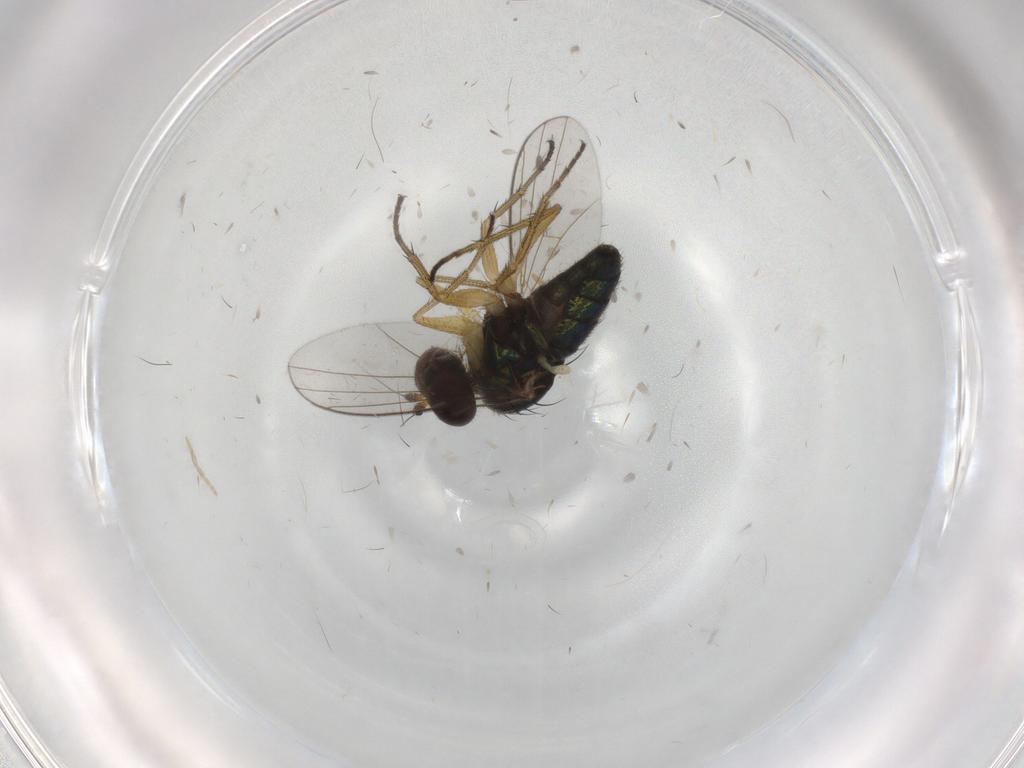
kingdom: Animalia
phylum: Arthropoda
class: Insecta
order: Diptera
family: Dolichopodidae
